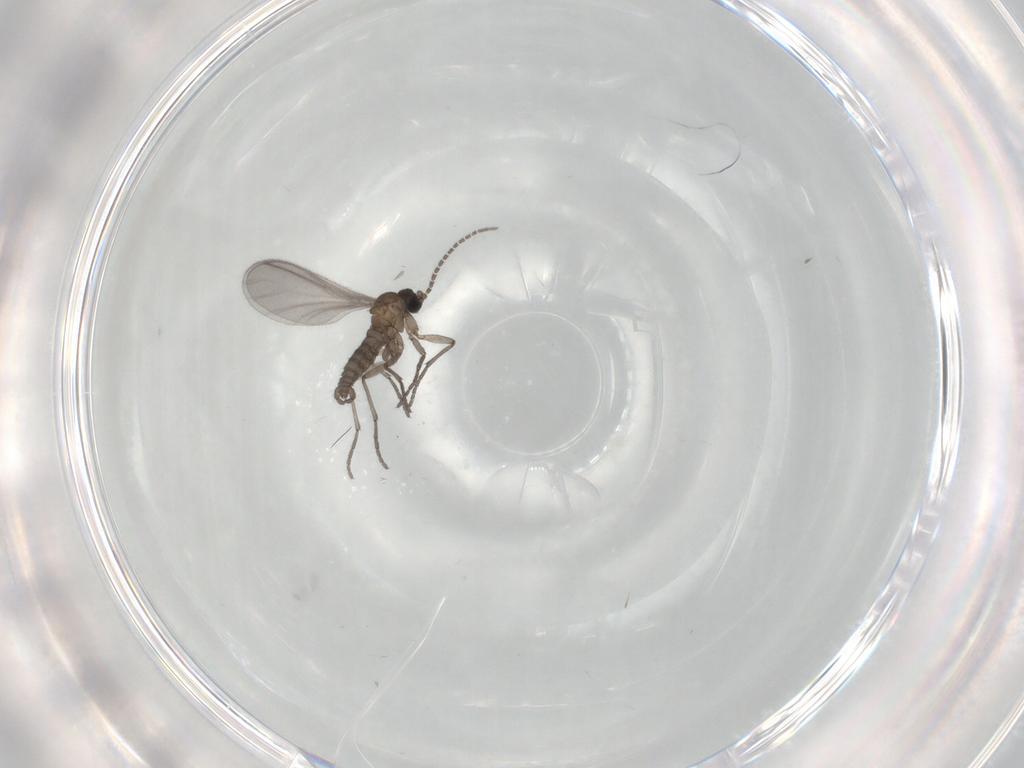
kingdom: Animalia
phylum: Arthropoda
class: Insecta
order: Diptera
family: Sciaridae
